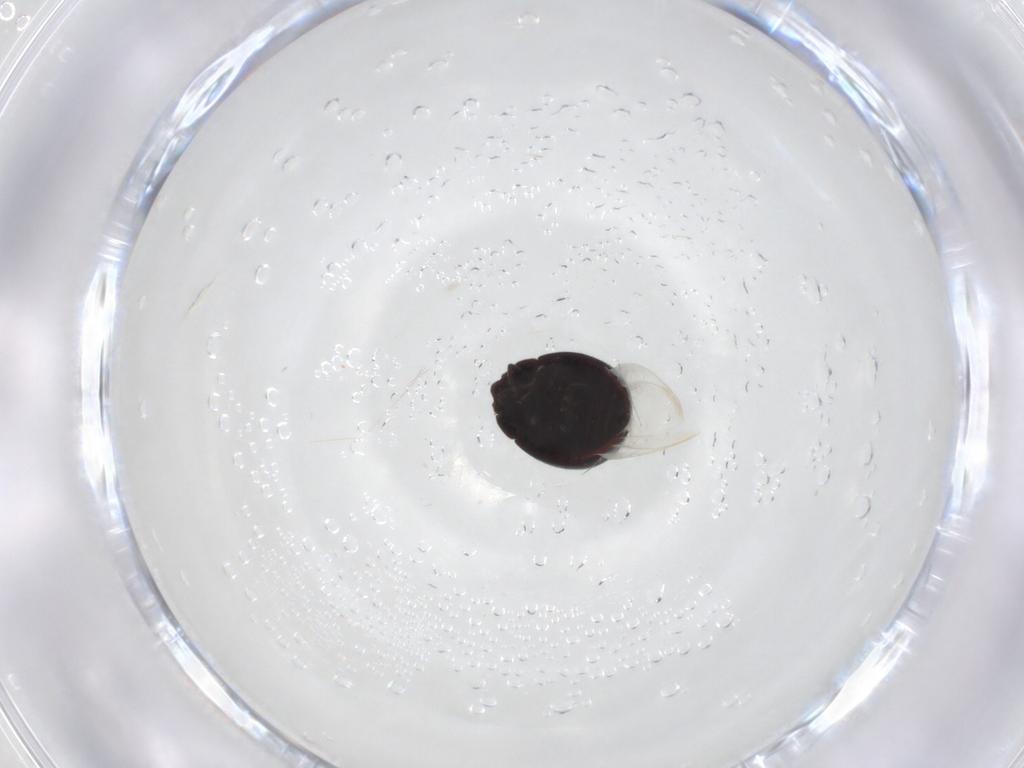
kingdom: Animalia
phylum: Arthropoda
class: Insecta
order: Coleoptera
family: Coccinellidae
